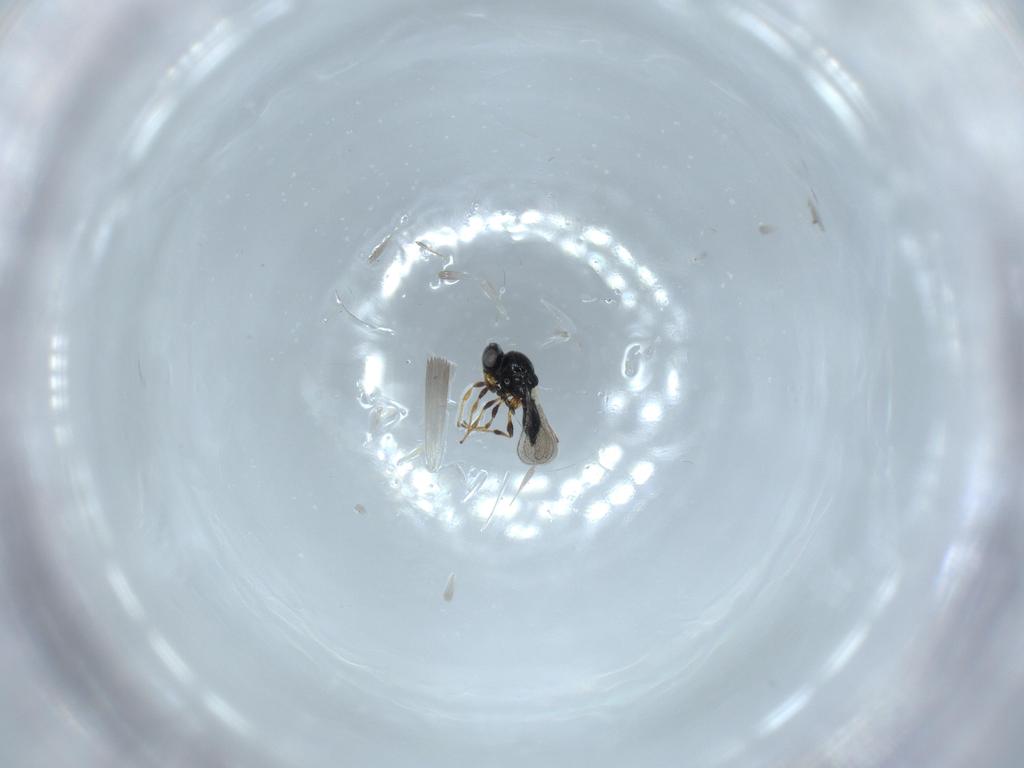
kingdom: Animalia
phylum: Arthropoda
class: Insecta
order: Hymenoptera
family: Platygastridae
